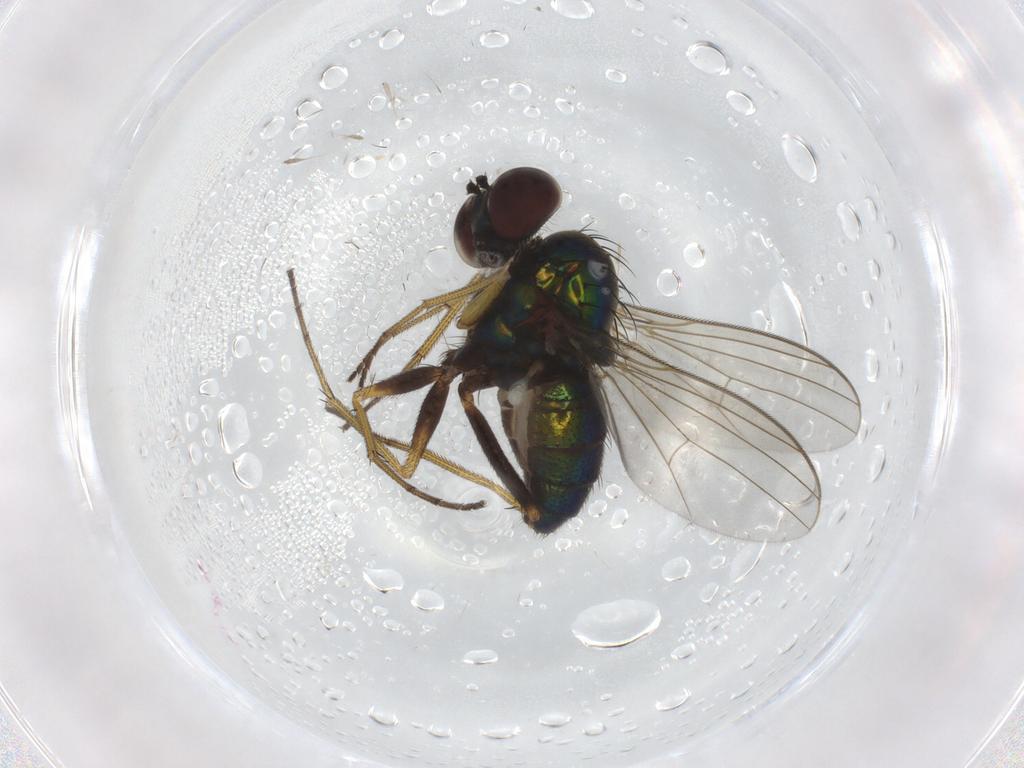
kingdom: Animalia
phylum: Arthropoda
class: Insecta
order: Diptera
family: Dolichopodidae
